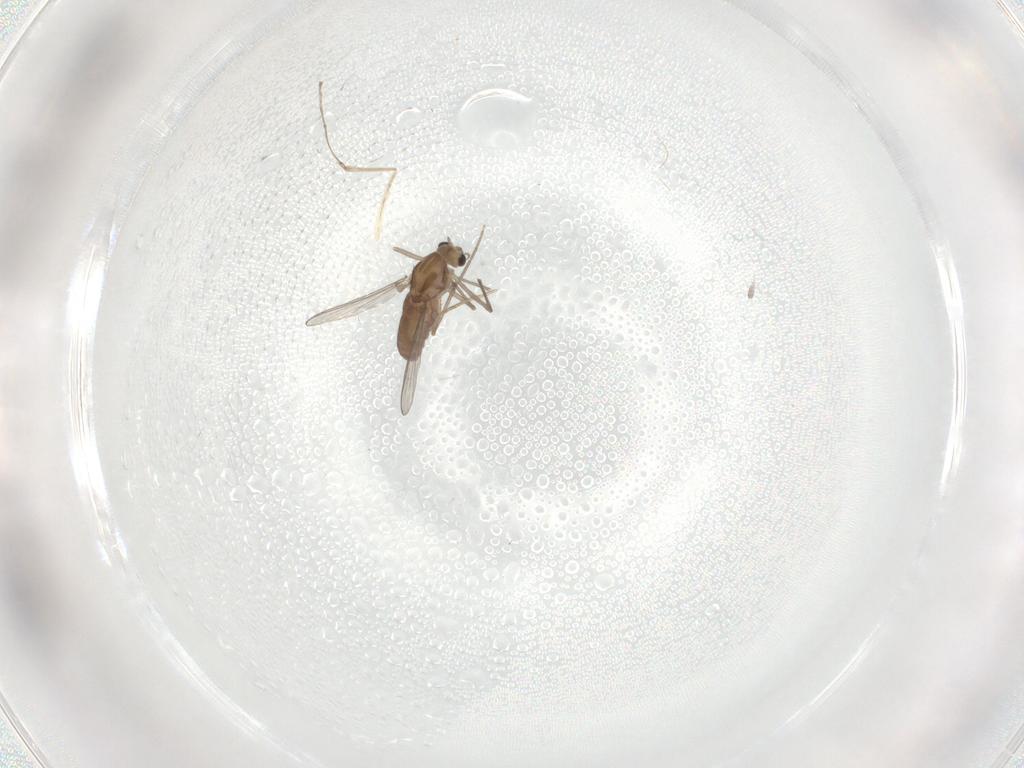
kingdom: Animalia
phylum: Arthropoda
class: Insecta
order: Diptera
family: Chironomidae
